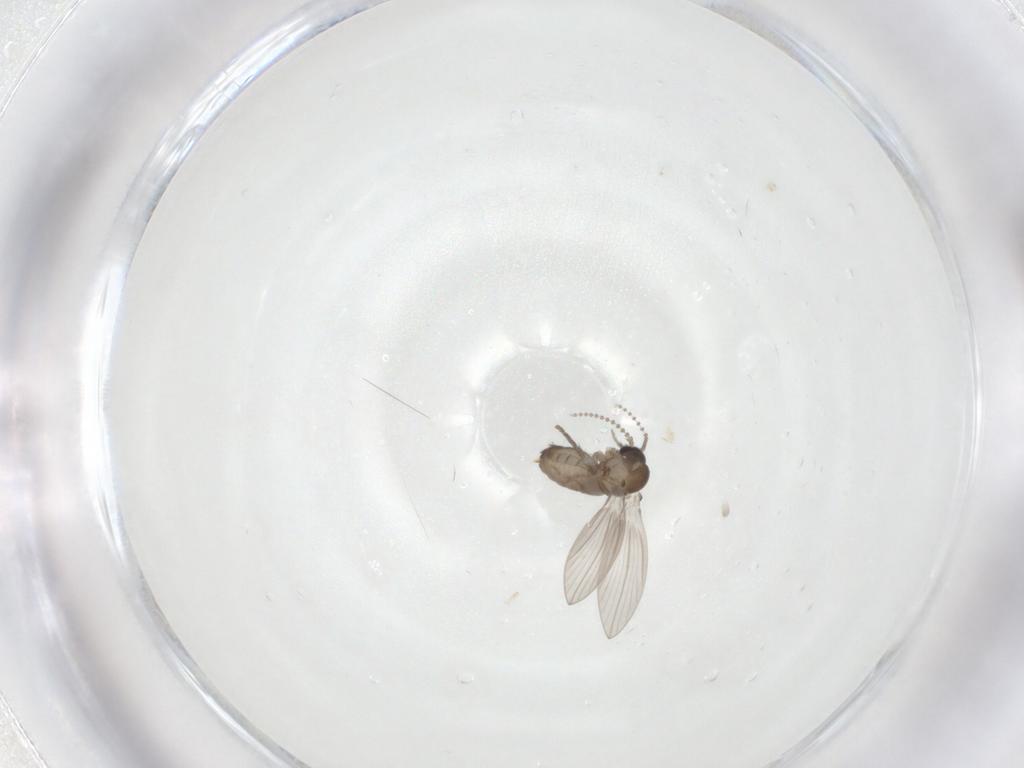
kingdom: Animalia
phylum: Arthropoda
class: Insecta
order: Diptera
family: Psychodidae
